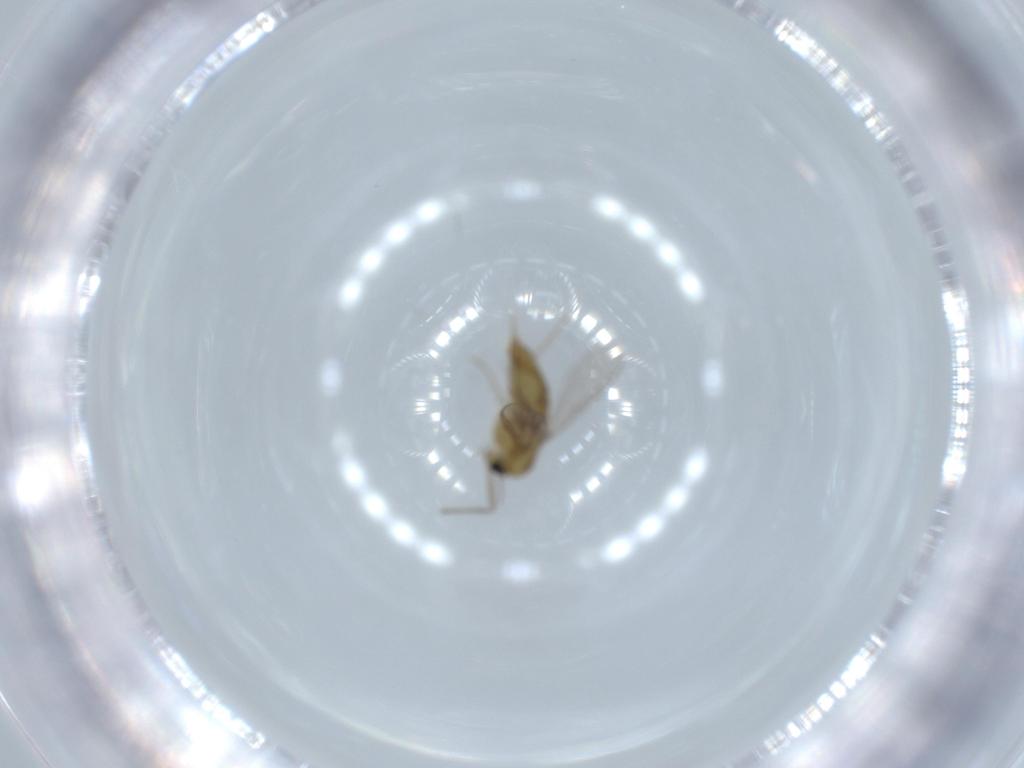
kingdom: Animalia
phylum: Arthropoda
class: Insecta
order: Diptera
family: Chironomidae
